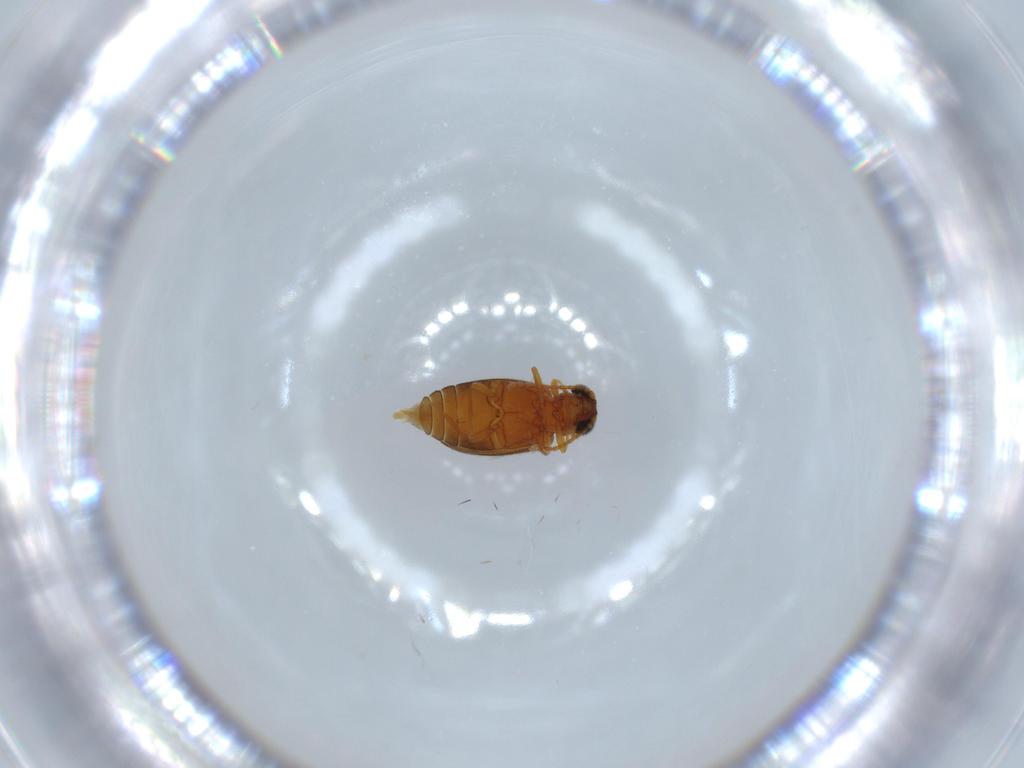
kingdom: Animalia
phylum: Arthropoda
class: Insecta
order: Coleoptera
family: Aderidae
